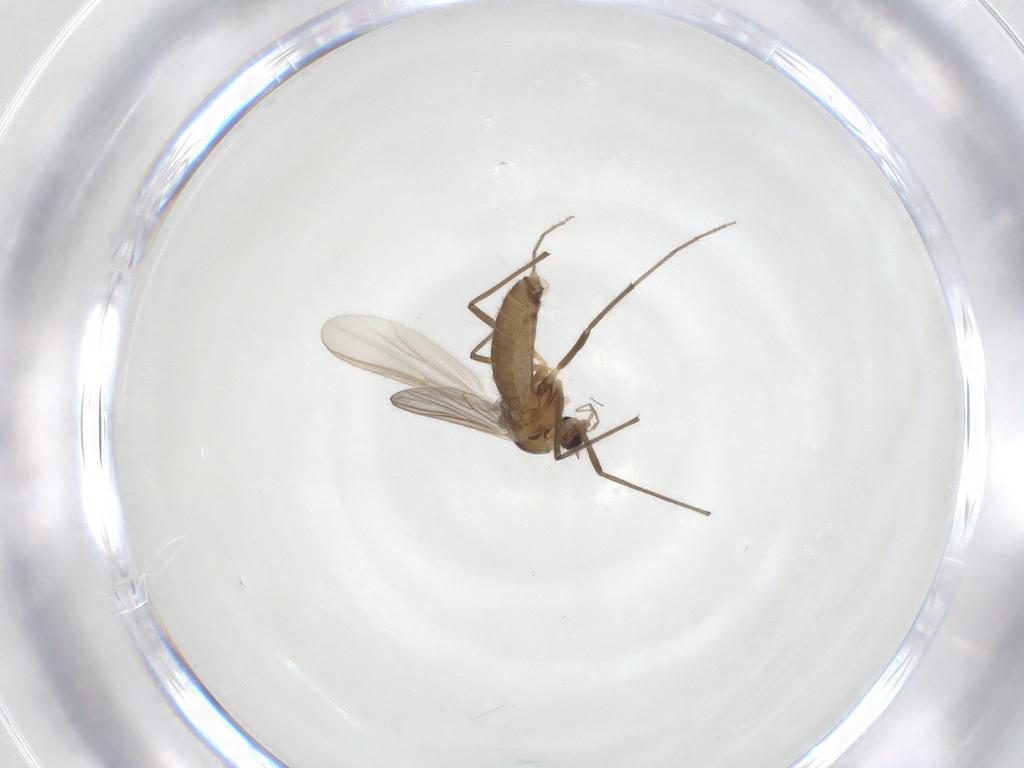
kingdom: Animalia
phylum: Arthropoda
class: Insecta
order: Diptera
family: Chironomidae
